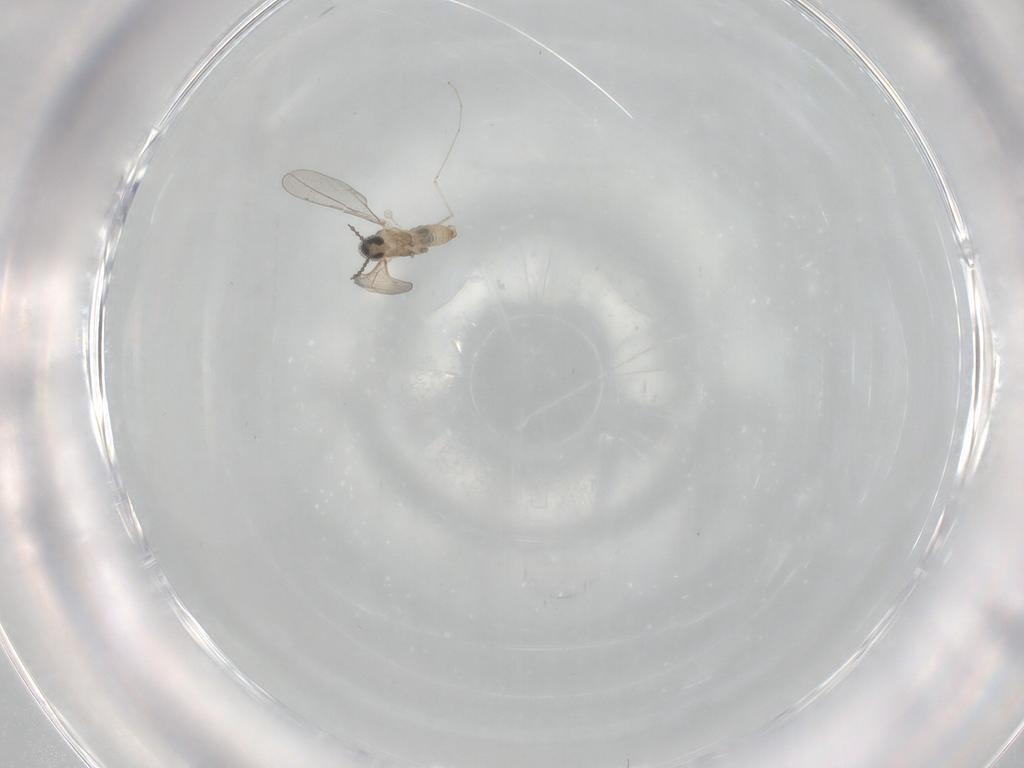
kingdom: Animalia
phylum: Arthropoda
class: Insecta
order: Diptera
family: Cecidomyiidae
